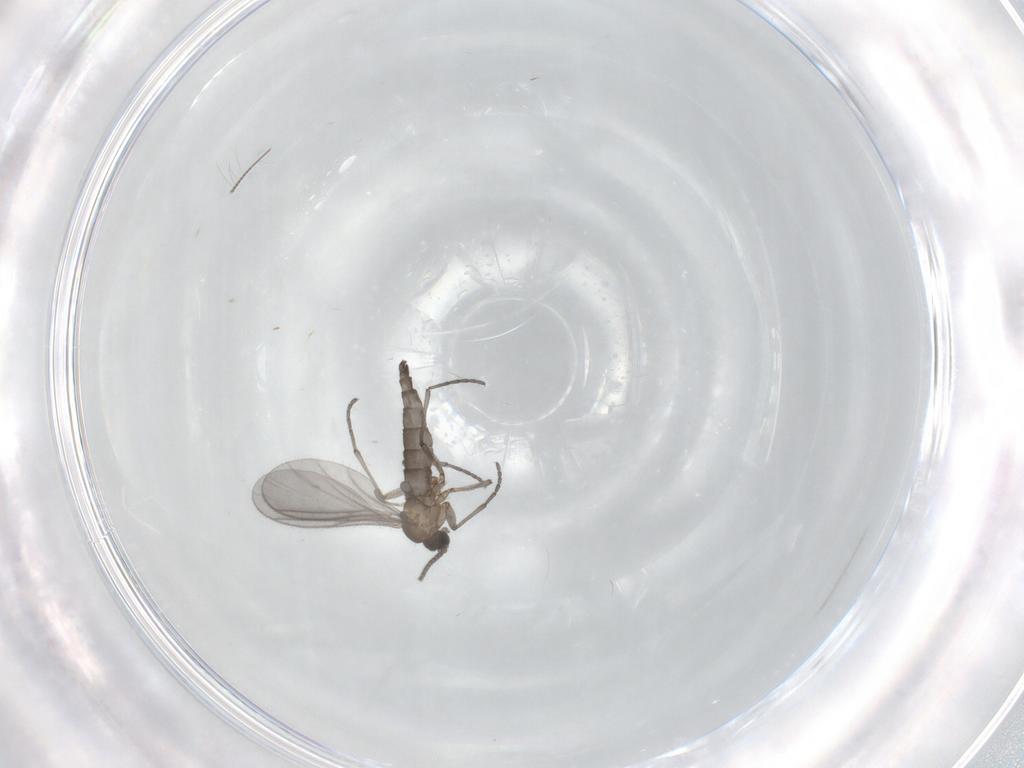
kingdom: Animalia
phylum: Arthropoda
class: Insecta
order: Diptera
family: Sciaridae
